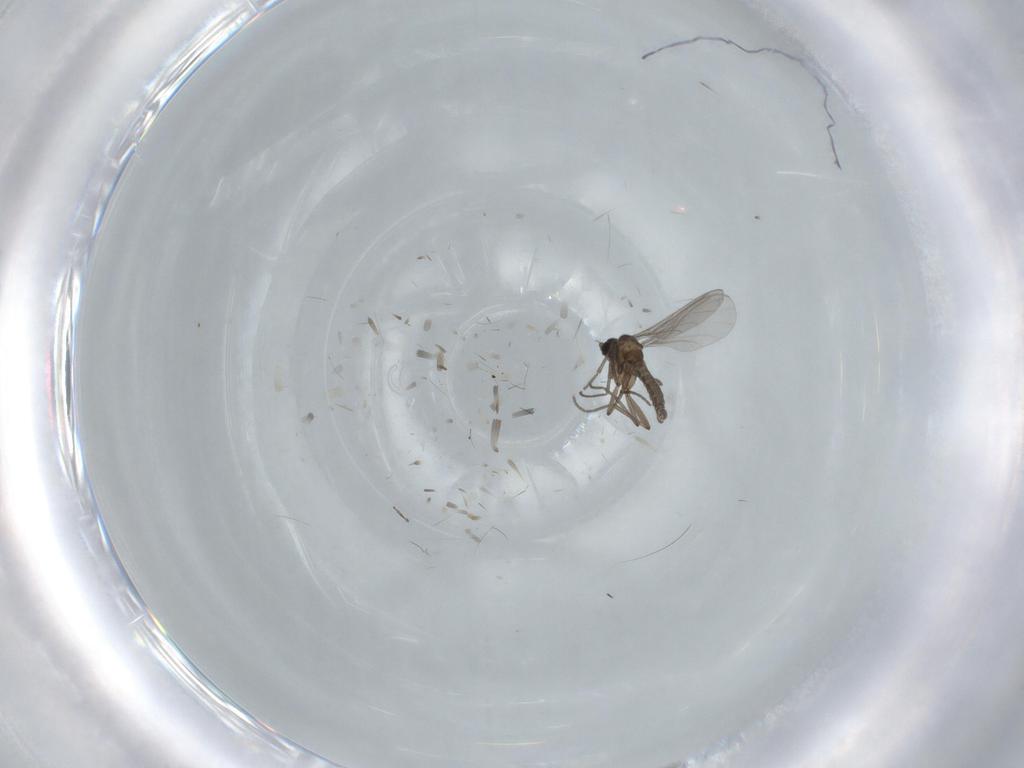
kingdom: Animalia
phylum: Arthropoda
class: Insecta
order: Diptera
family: Sciaridae
